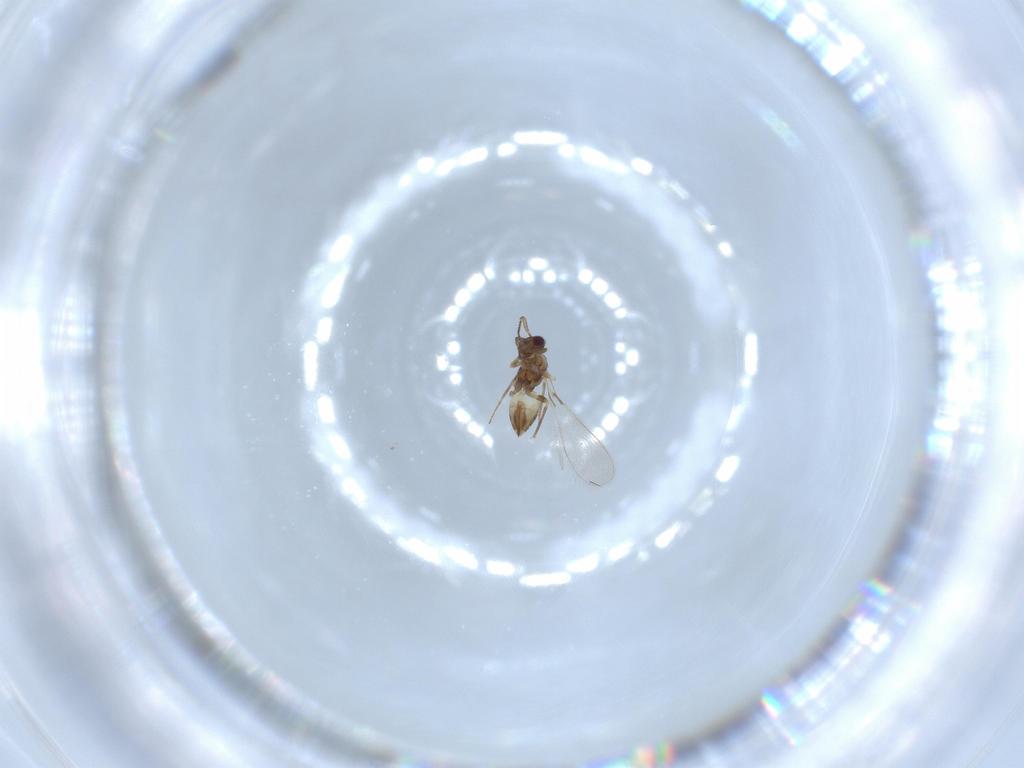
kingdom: Animalia
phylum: Arthropoda
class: Insecta
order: Hymenoptera
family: Mymaridae
